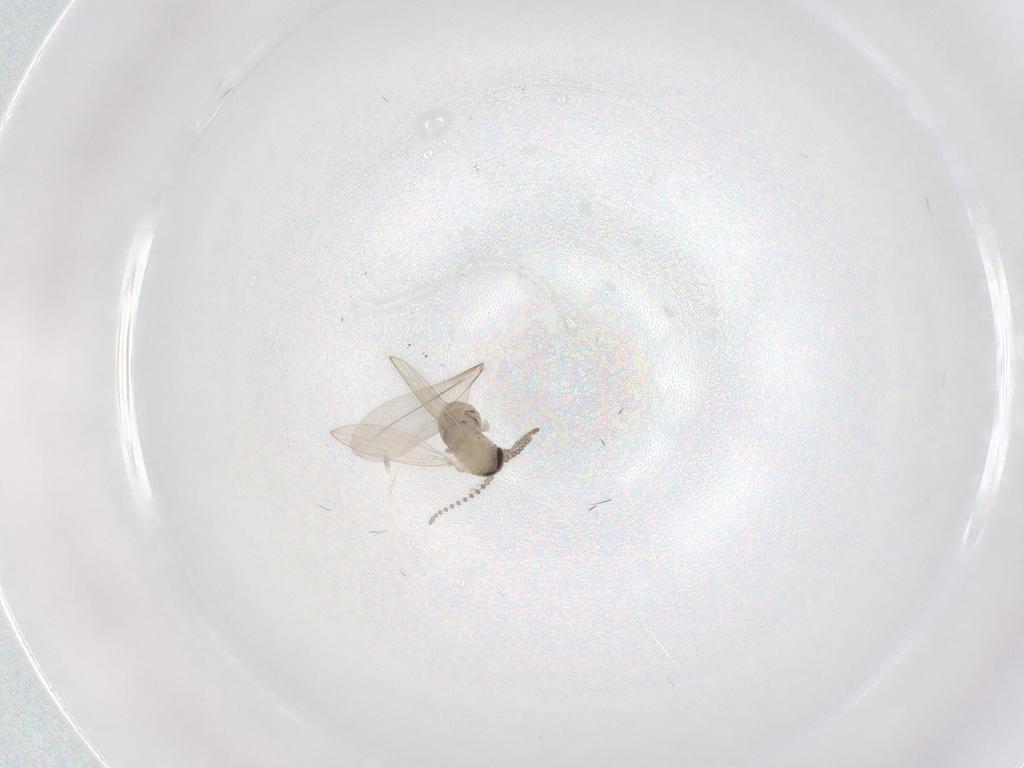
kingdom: Animalia
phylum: Arthropoda
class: Insecta
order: Diptera
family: Psychodidae
